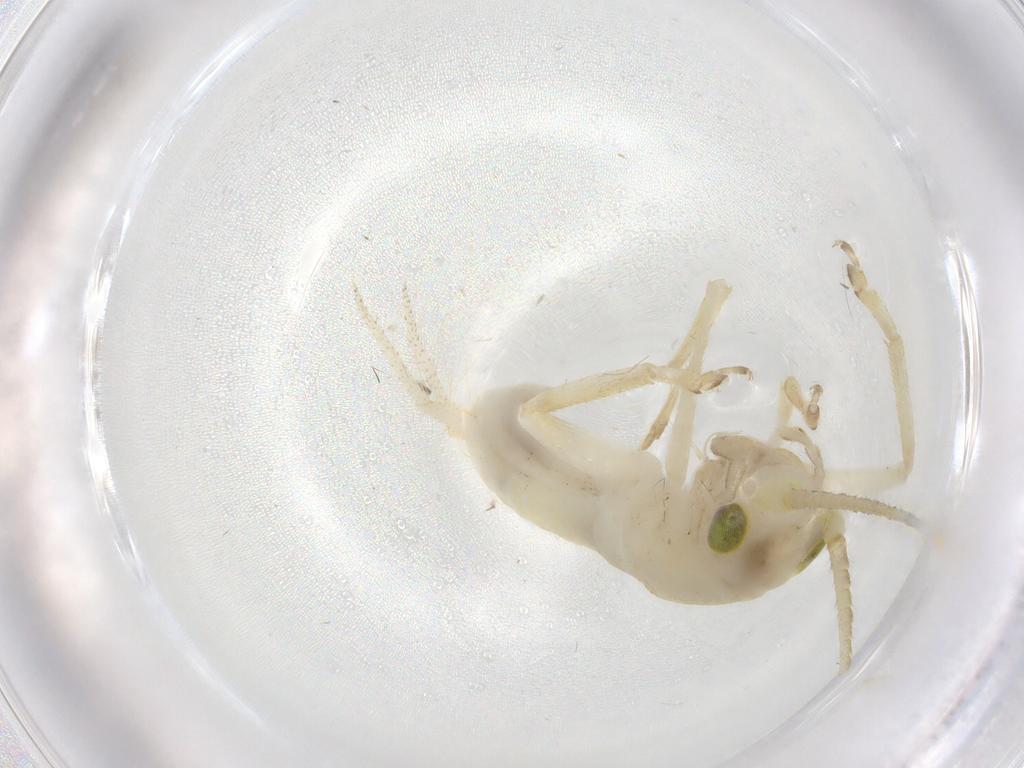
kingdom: Animalia
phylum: Arthropoda
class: Insecta
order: Orthoptera
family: Trigonidiidae
